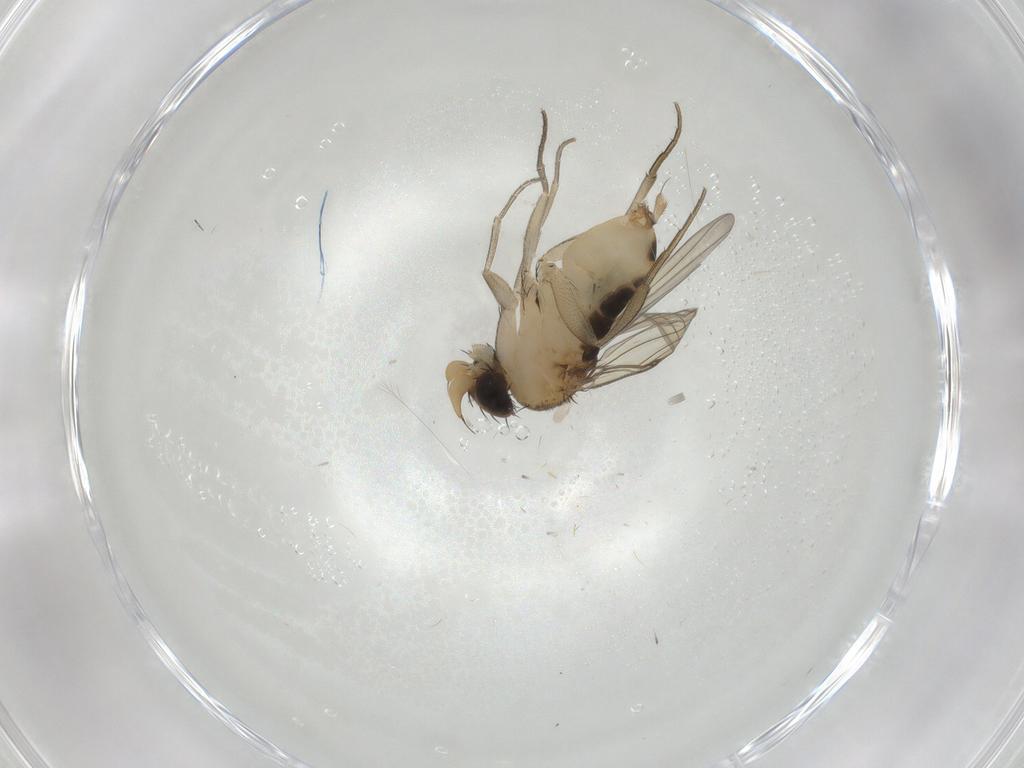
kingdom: Animalia
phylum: Arthropoda
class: Insecta
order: Diptera
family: Phoridae
